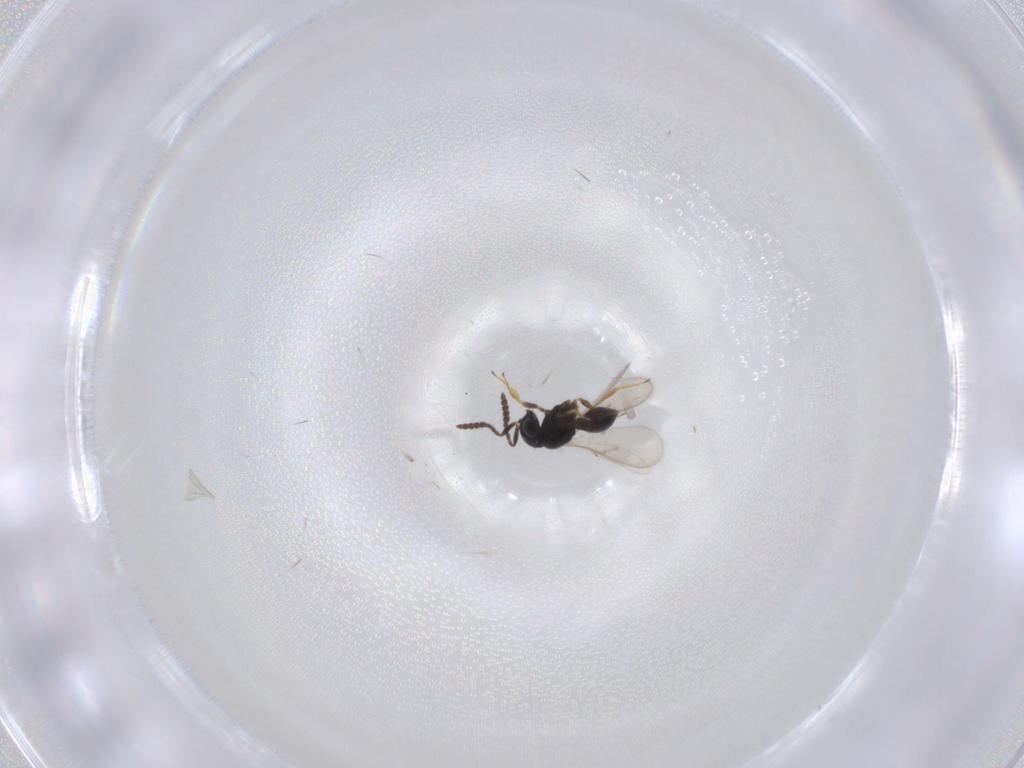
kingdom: Animalia
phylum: Arthropoda
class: Insecta
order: Hymenoptera
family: Scelionidae
